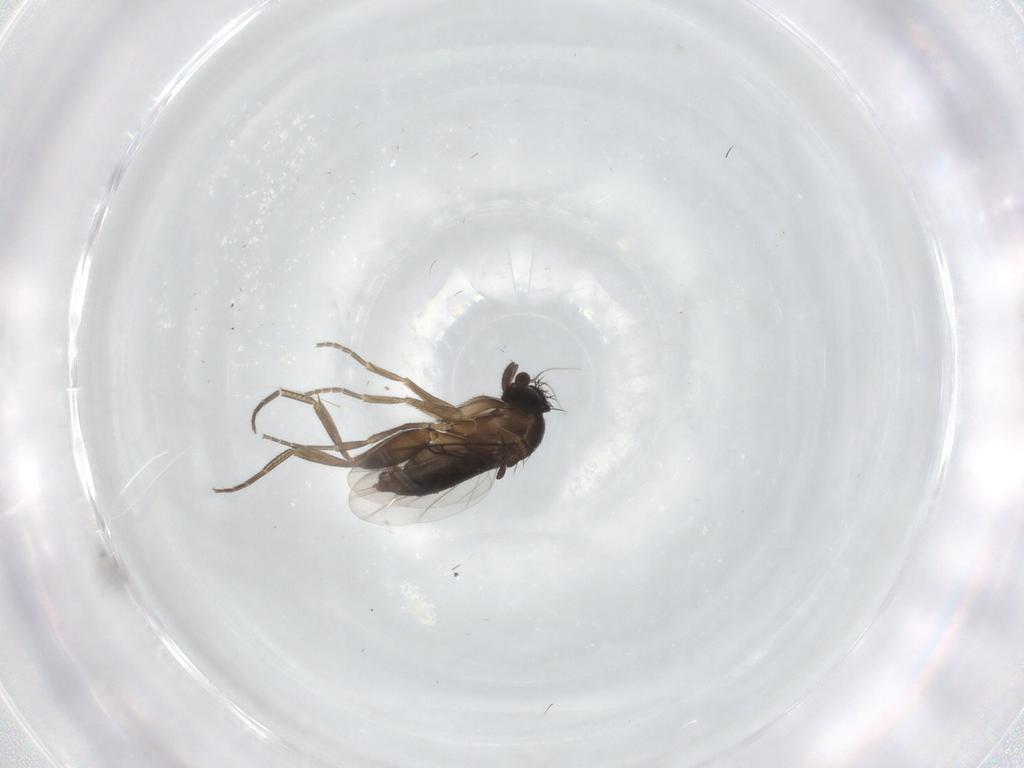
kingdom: Animalia
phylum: Arthropoda
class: Insecta
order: Diptera
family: Phoridae
